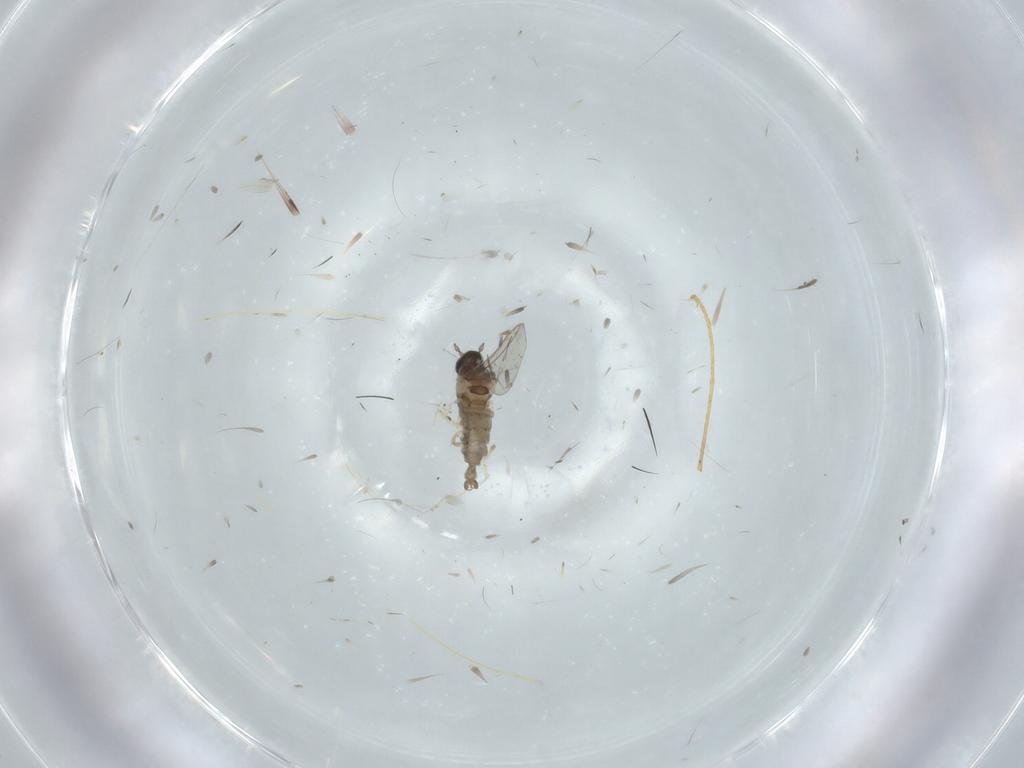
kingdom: Animalia
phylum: Arthropoda
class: Insecta
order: Diptera
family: Cecidomyiidae
